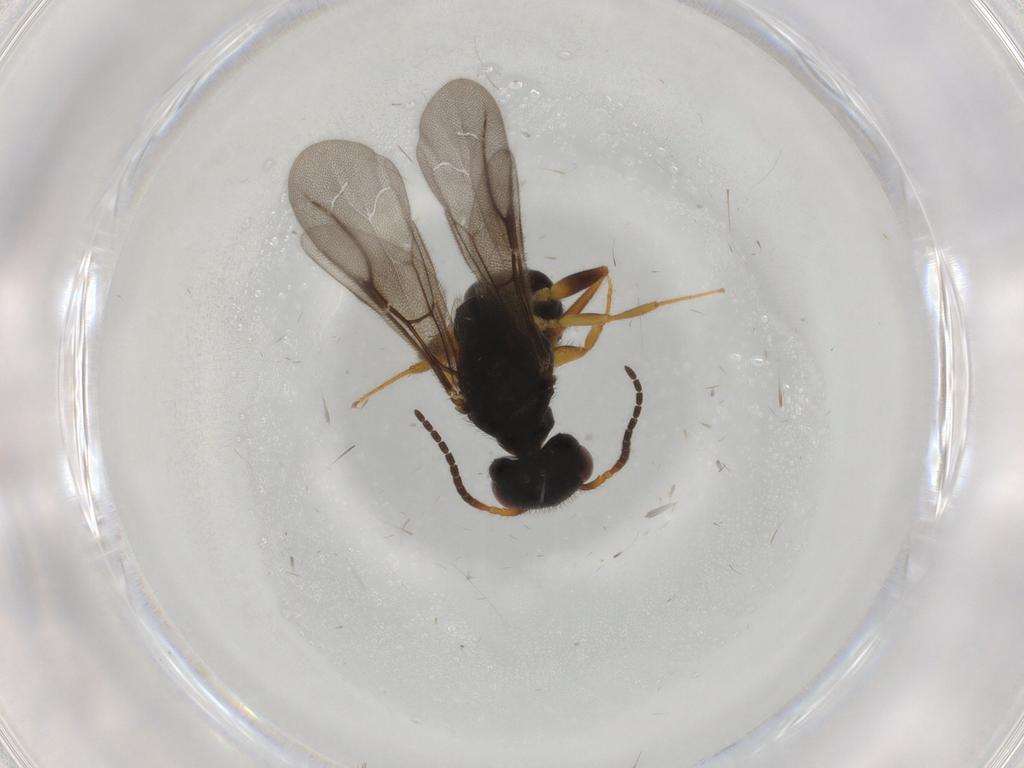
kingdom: Animalia
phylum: Arthropoda
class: Insecta
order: Hymenoptera
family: Bethylidae
